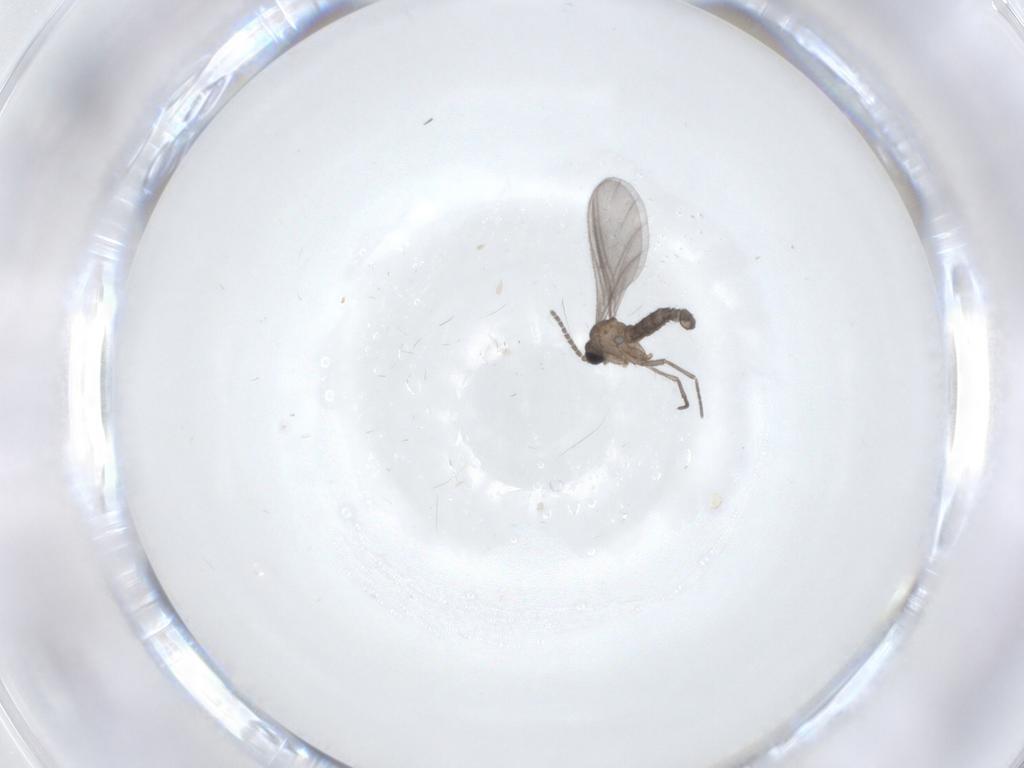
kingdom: Animalia
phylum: Arthropoda
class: Insecta
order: Diptera
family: Sciaridae
